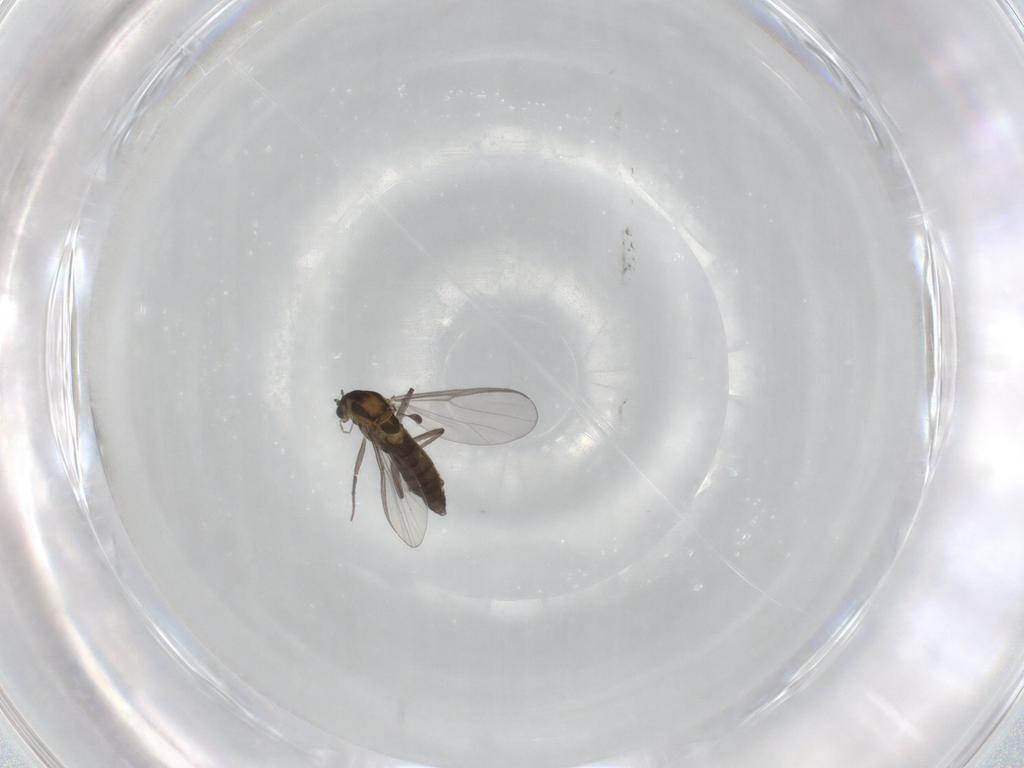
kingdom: Animalia
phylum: Arthropoda
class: Insecta
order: Diptera
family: Chironomidae
